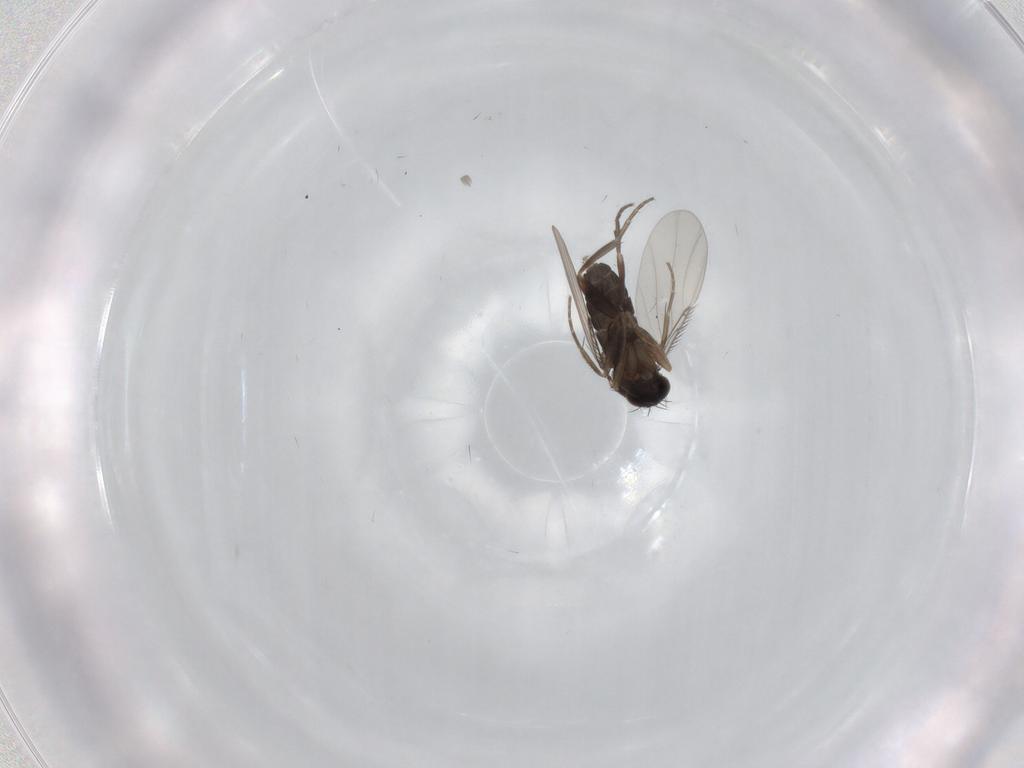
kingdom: Animalia
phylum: Arthropoda
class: Insecta
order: Diptera
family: Phoridae
